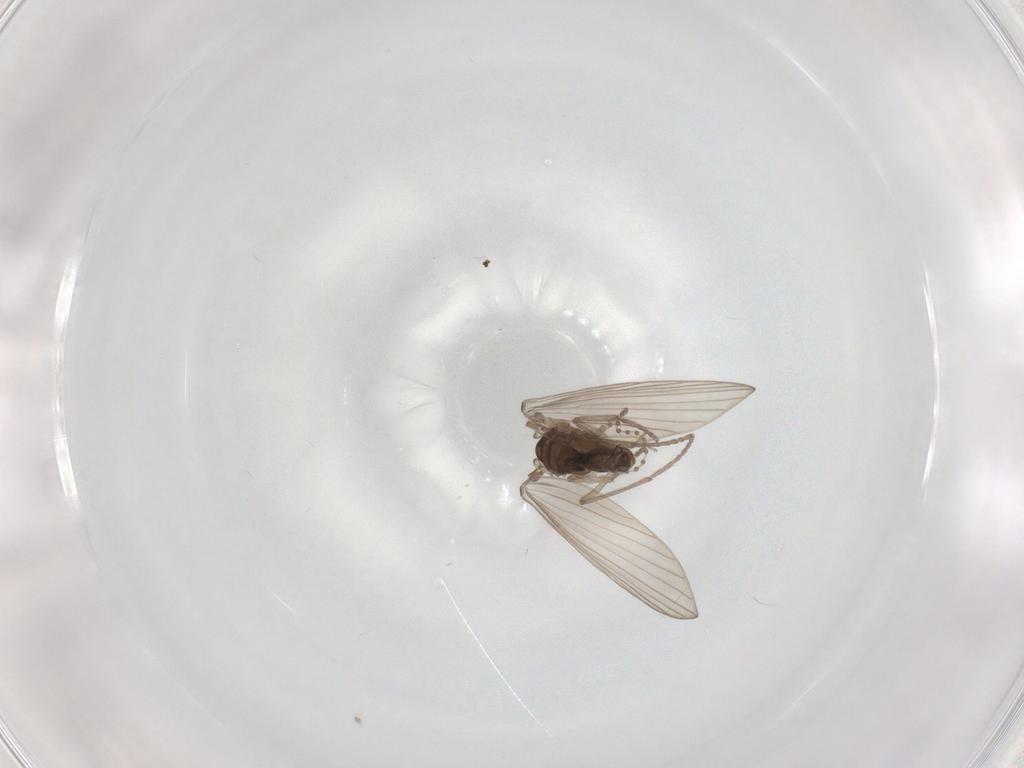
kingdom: Animalia
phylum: Arthropoda
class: Insecta
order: Diptera
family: Psychodidae
